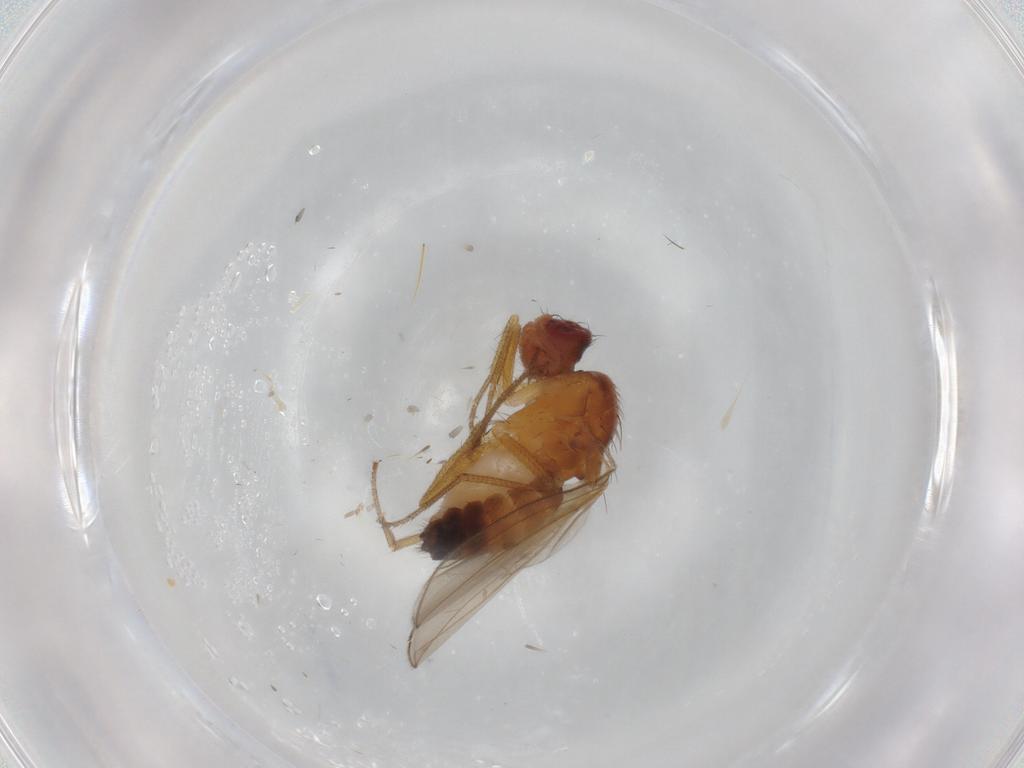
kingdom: Animalia
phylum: Arthropoda
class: Insecta
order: Diptera
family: Drosophilidae
